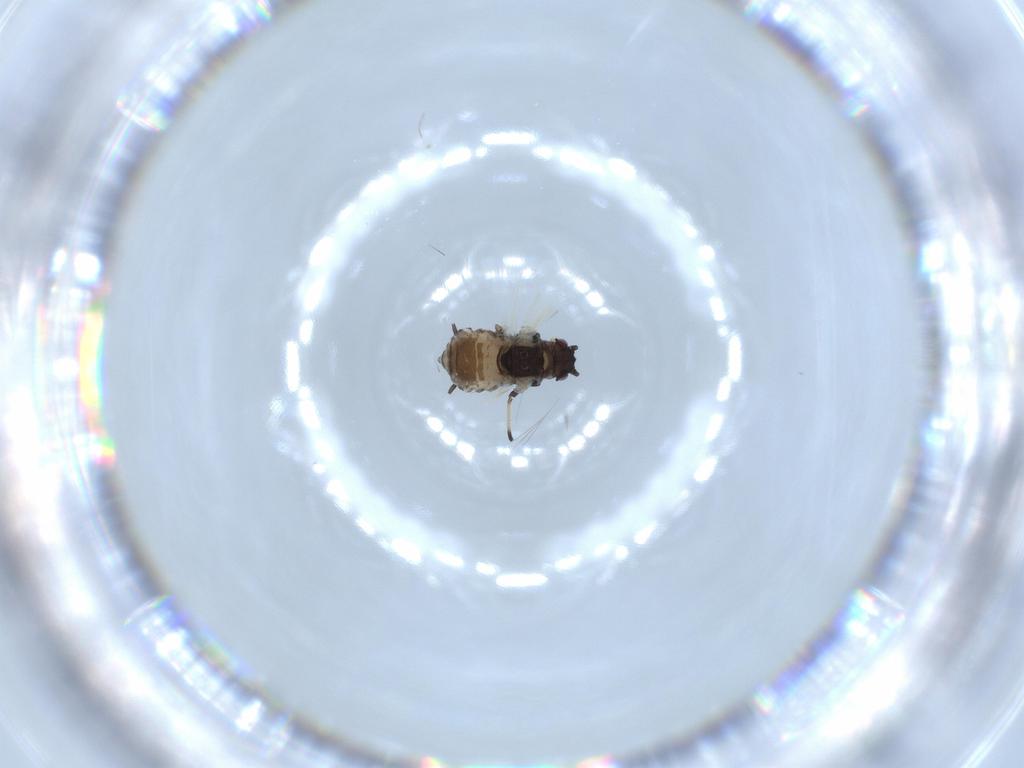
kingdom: Animalia
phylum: Arthropoda
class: Insecta
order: Hemiptera
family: Aphididae
